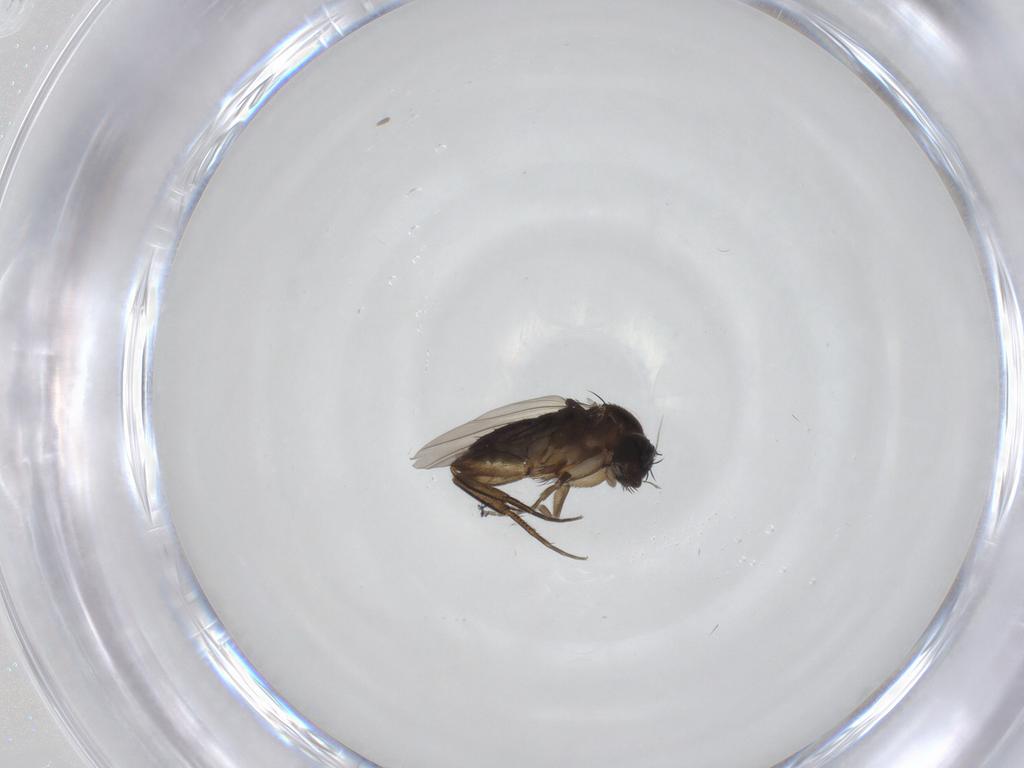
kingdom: Animalia
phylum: Arthropoda
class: Insecta
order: Diptera
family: Phoridae
